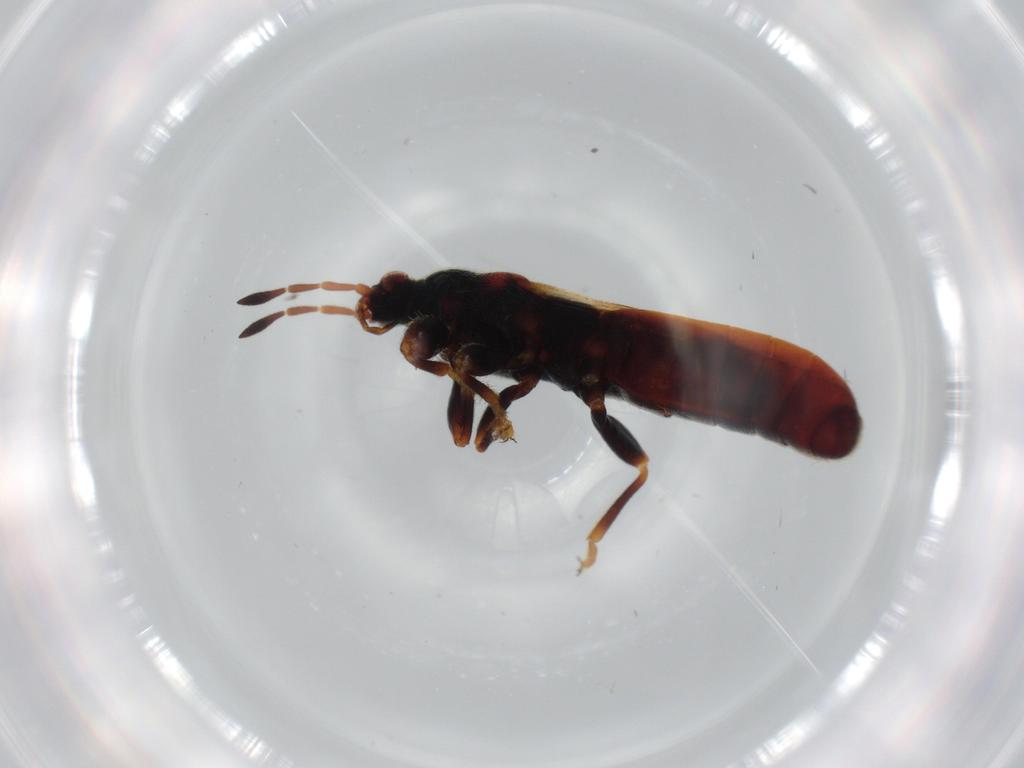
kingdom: Animalia
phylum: Arthropoda
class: Insecta
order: Hemiptera
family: Blissidae
